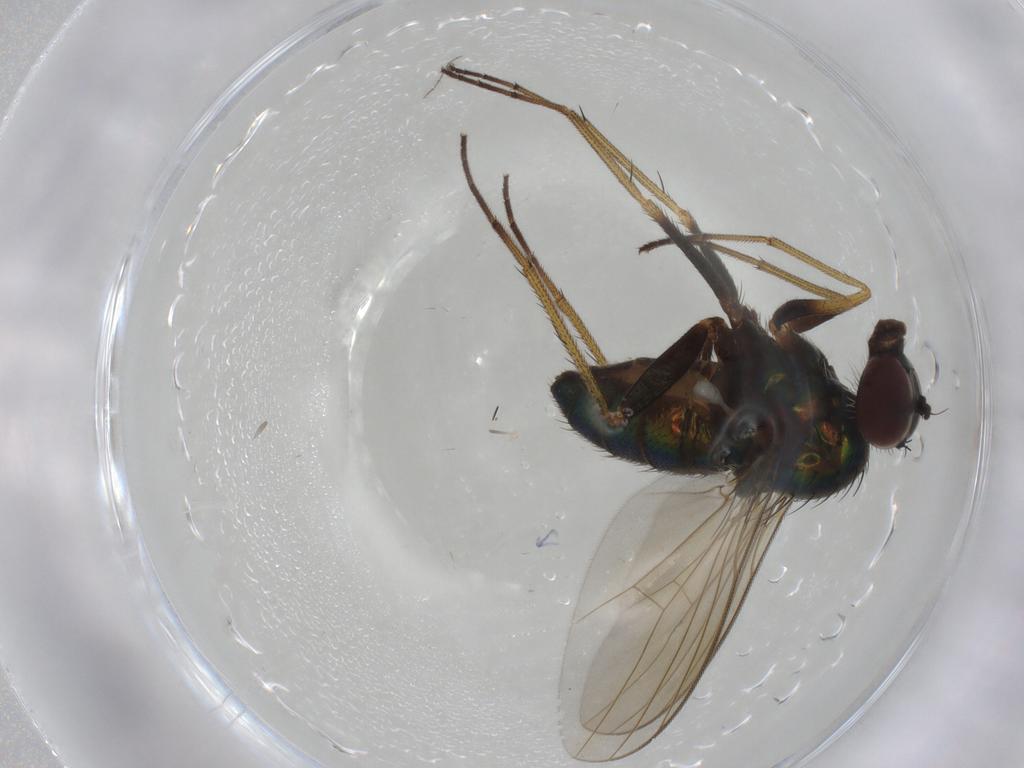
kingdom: Animalia
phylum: Arthropoda
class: Insecta
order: Diptera
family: Dolichopodidae
